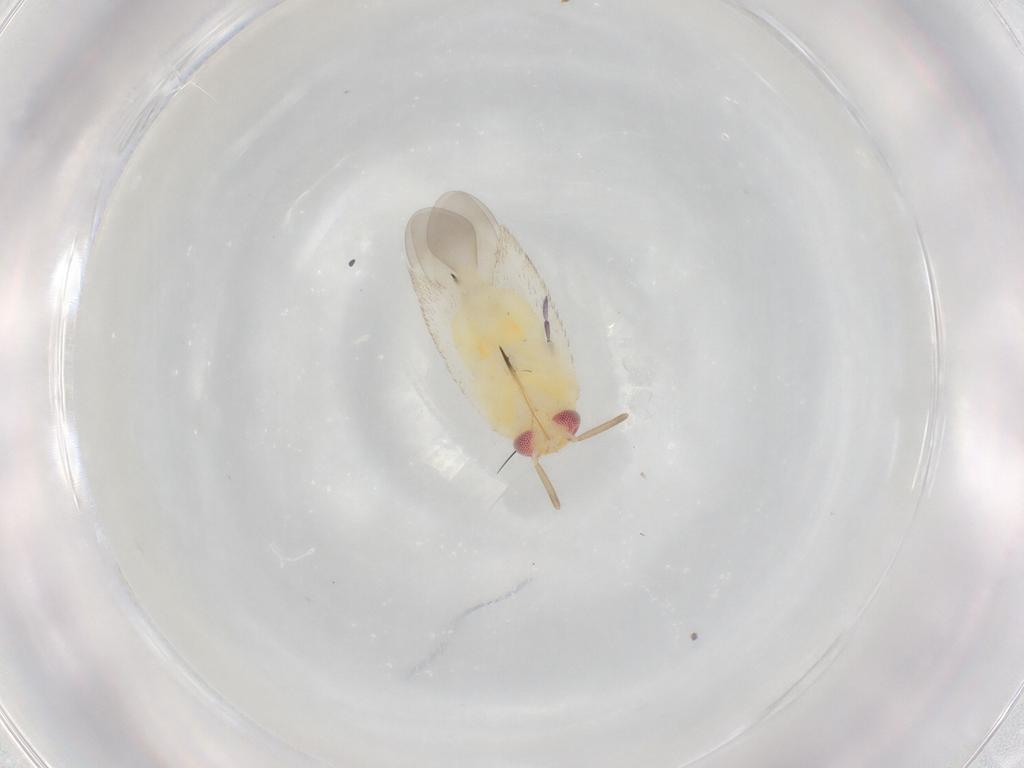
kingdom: Animalia
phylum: Arthropoda
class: Insecta
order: Hemiptera
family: Miridae
